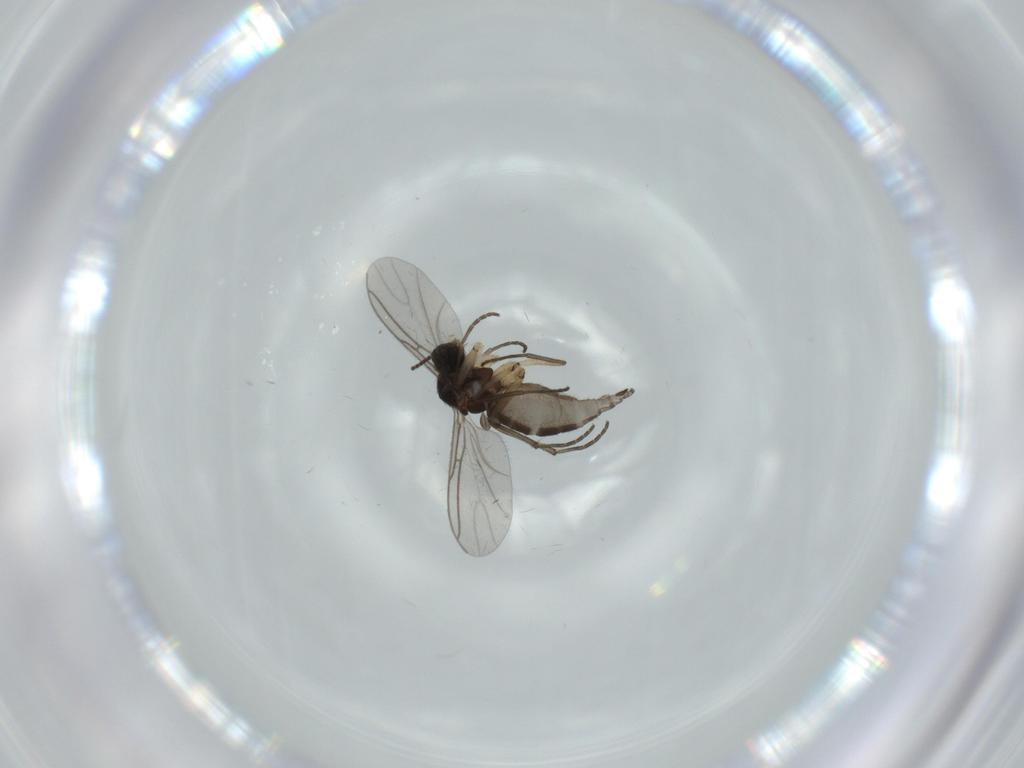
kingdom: Animalia
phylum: Arthropoda
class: Insecta
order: Diptera
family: Sciaridae
